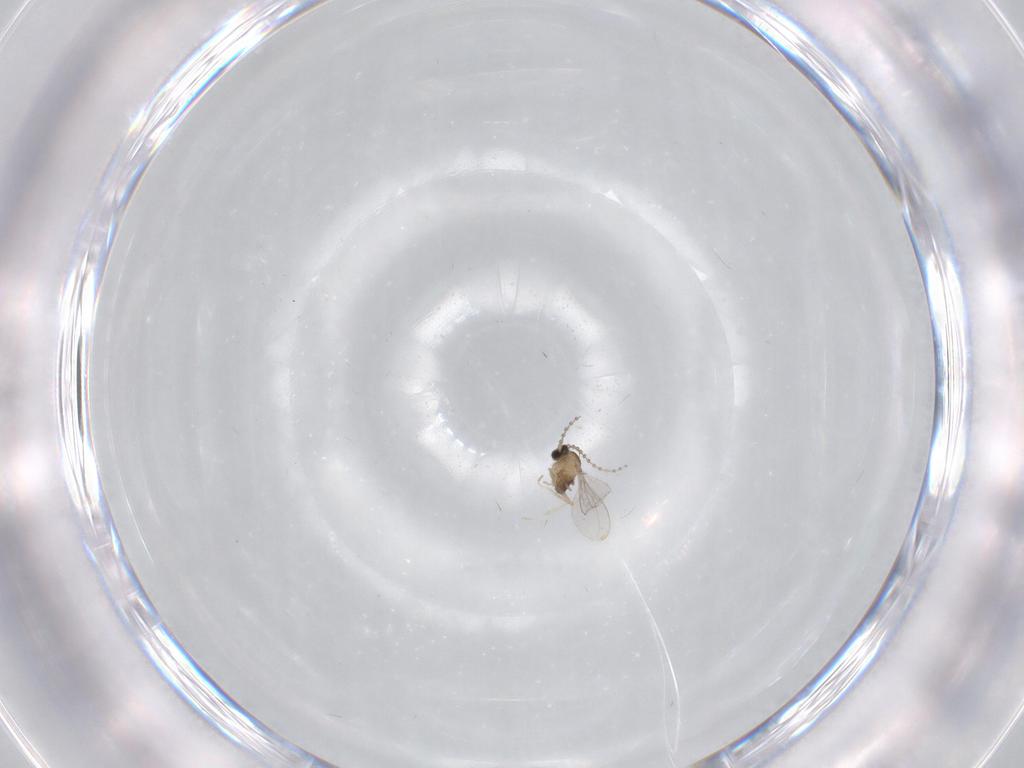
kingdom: Animalia
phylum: Arthropoda
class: Insecta
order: Diptera
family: Cecidomyiidae
